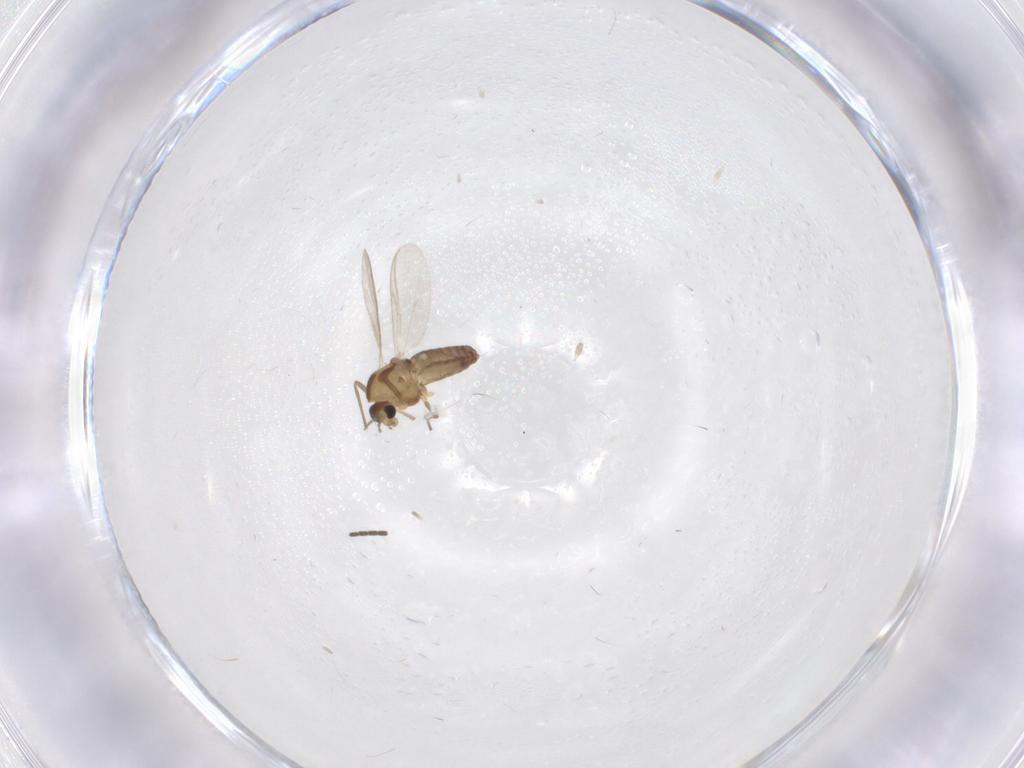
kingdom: Animalia
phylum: Arthropoda
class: Insecta
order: Diptera
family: Chironomidae
